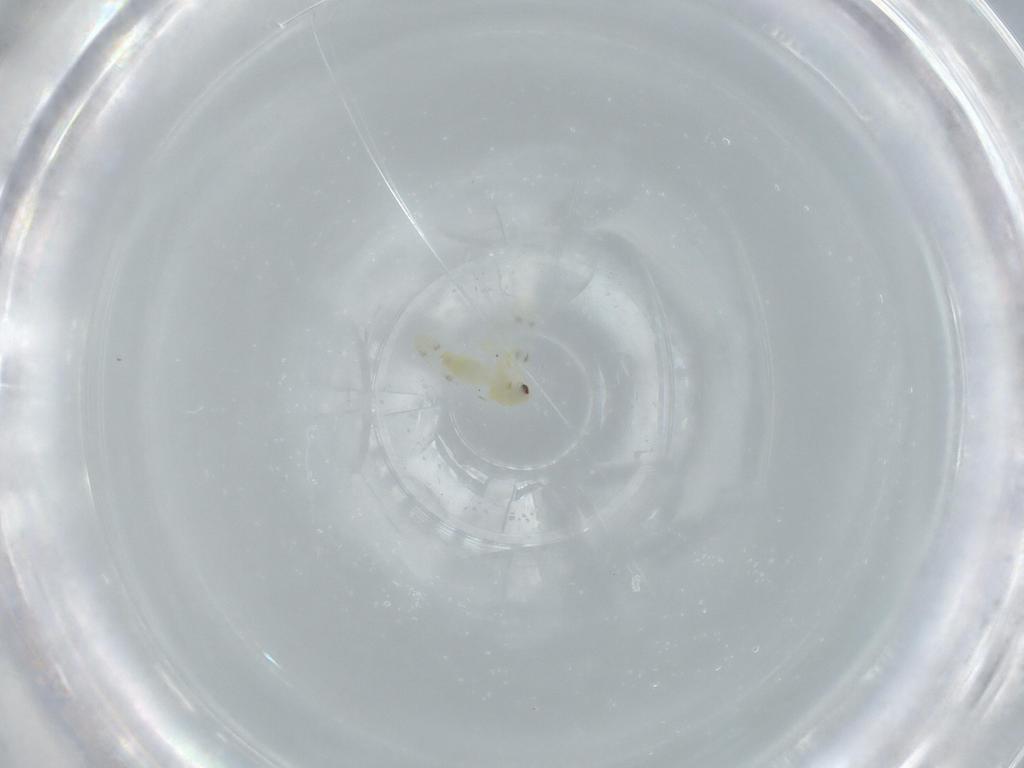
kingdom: Animalia
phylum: Arthropoda
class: Insecta
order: Hemiptera
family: Aleyrodidae
